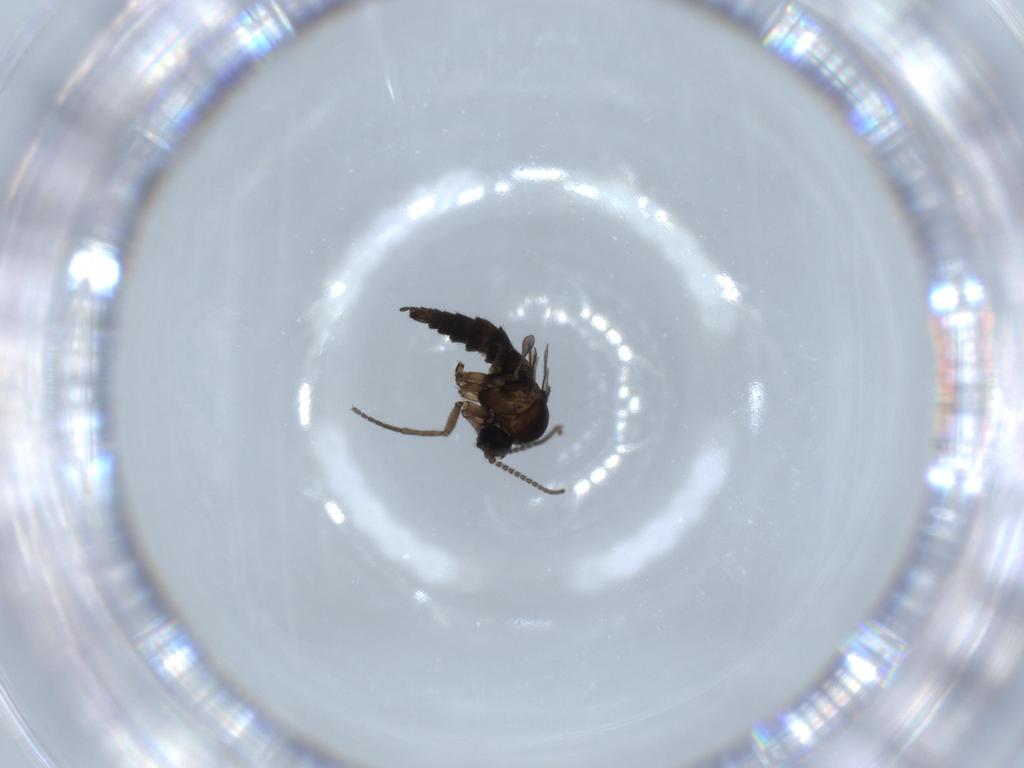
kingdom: Animalia
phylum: Arthropoda
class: Insecta
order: Diptera
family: Sciaridae
